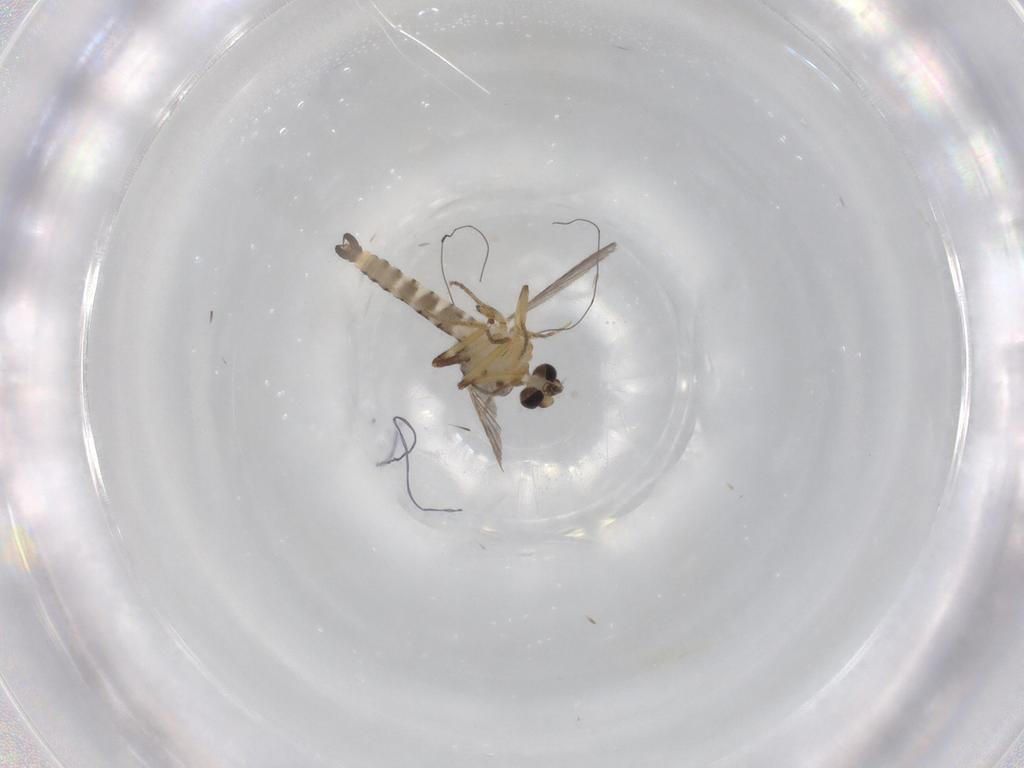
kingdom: Animalia
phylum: Arthropoda
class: Insecta
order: Diptera
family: Ceratopogonidae
